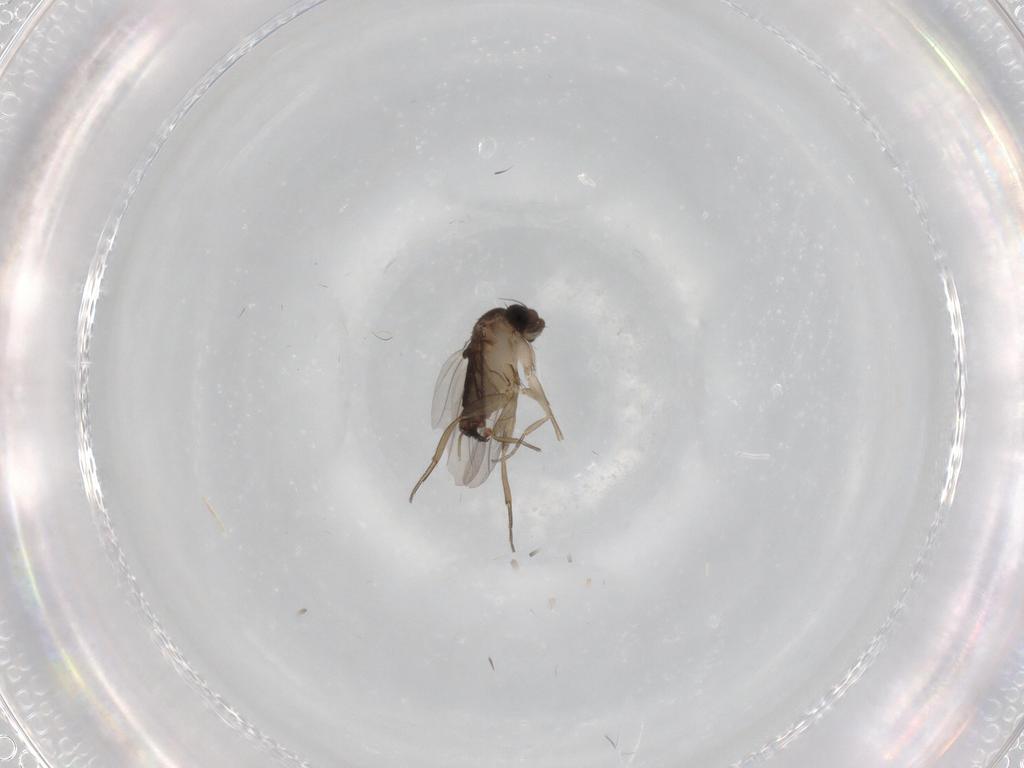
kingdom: Animalia
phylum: Arthropoda
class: Insecta
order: Diptera
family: Phoridae
